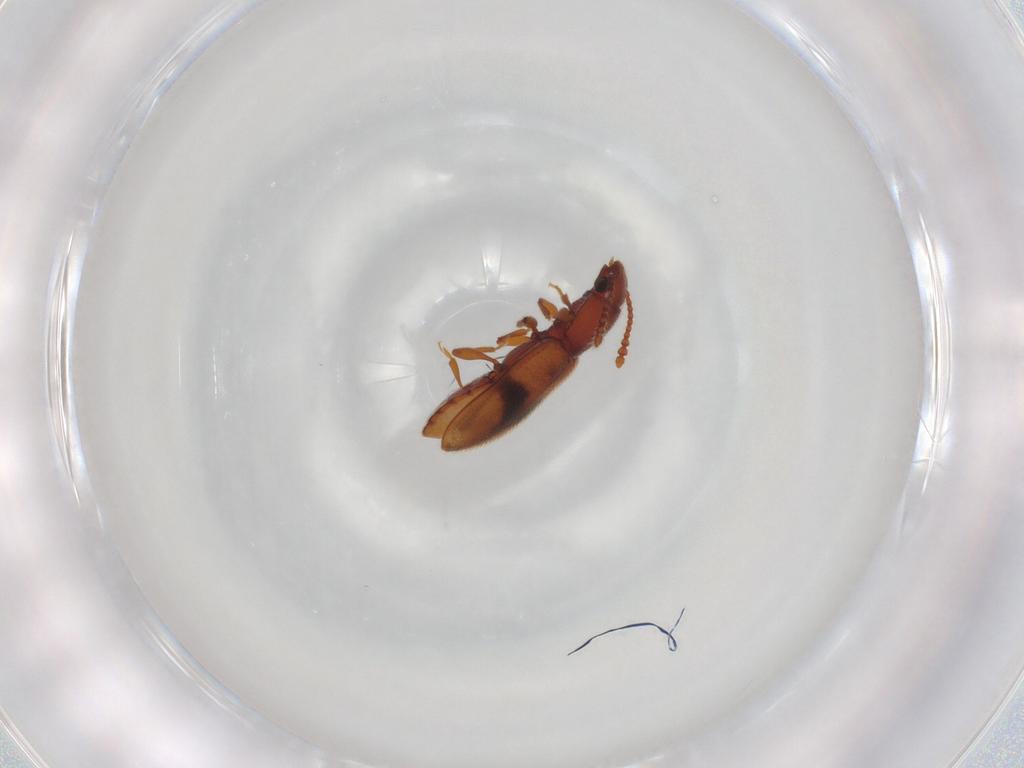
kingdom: Animalia
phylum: Arthropoda
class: Insecta
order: Coleoptera
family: Silvanidae
